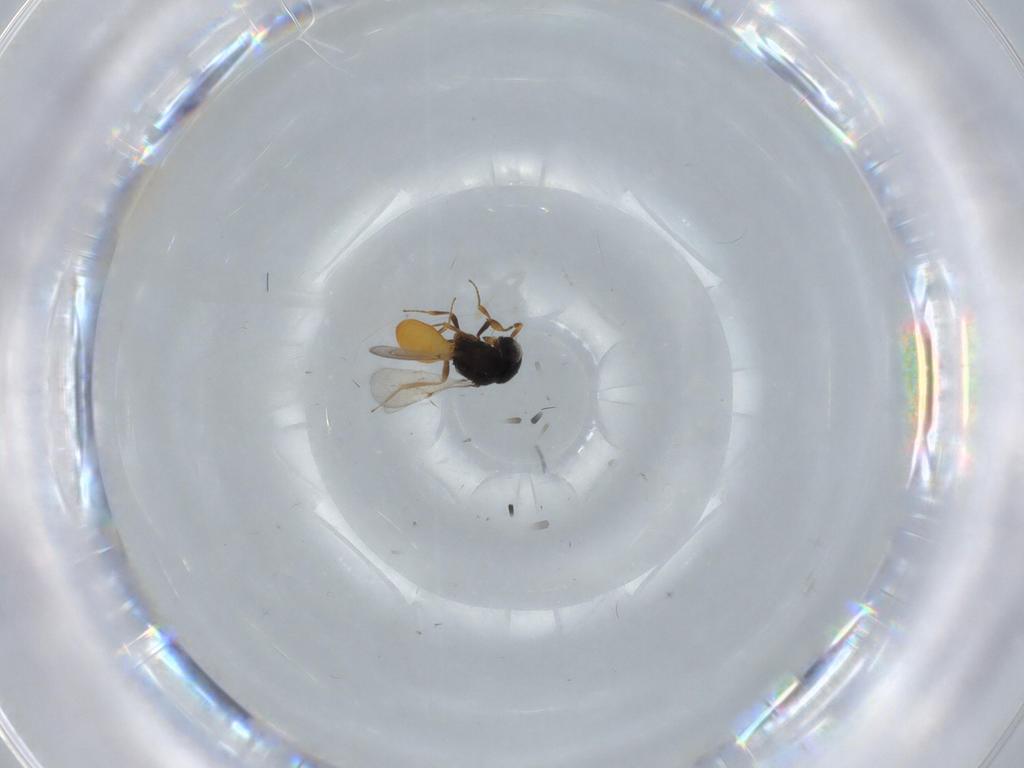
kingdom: Animalia
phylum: Arthropoda
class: Insecta
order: Hymenoptera
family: Scelionidae
